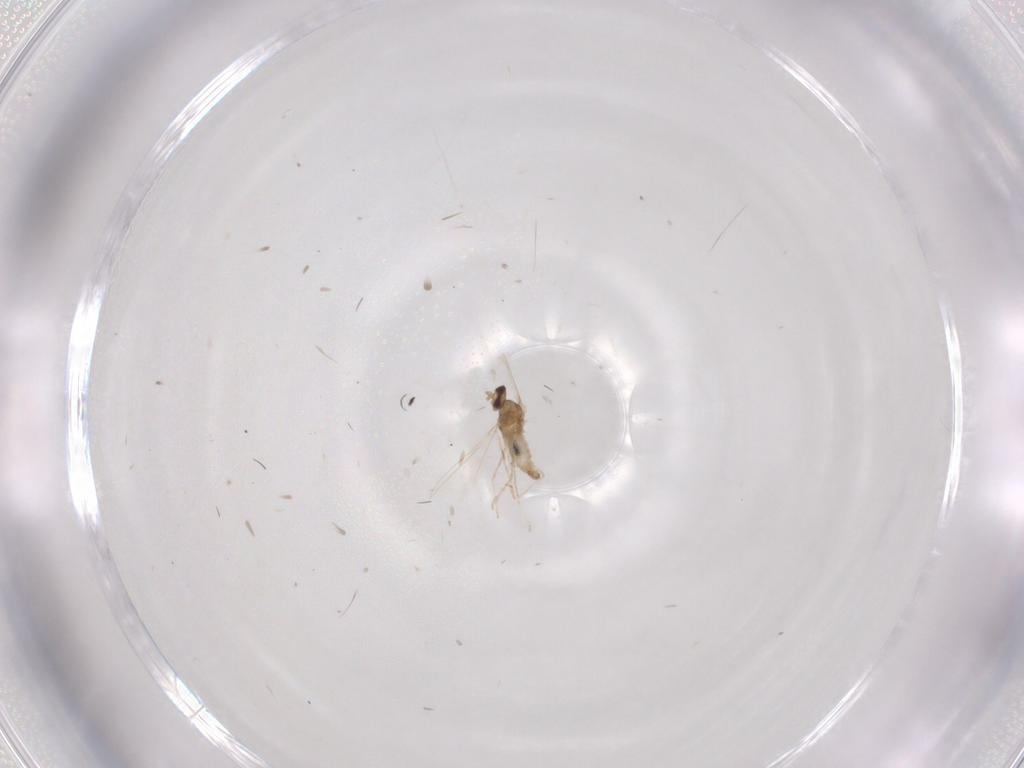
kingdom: Animalia
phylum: Arthropoda
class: Insecta
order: Diptera
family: Cecidomyiidae
